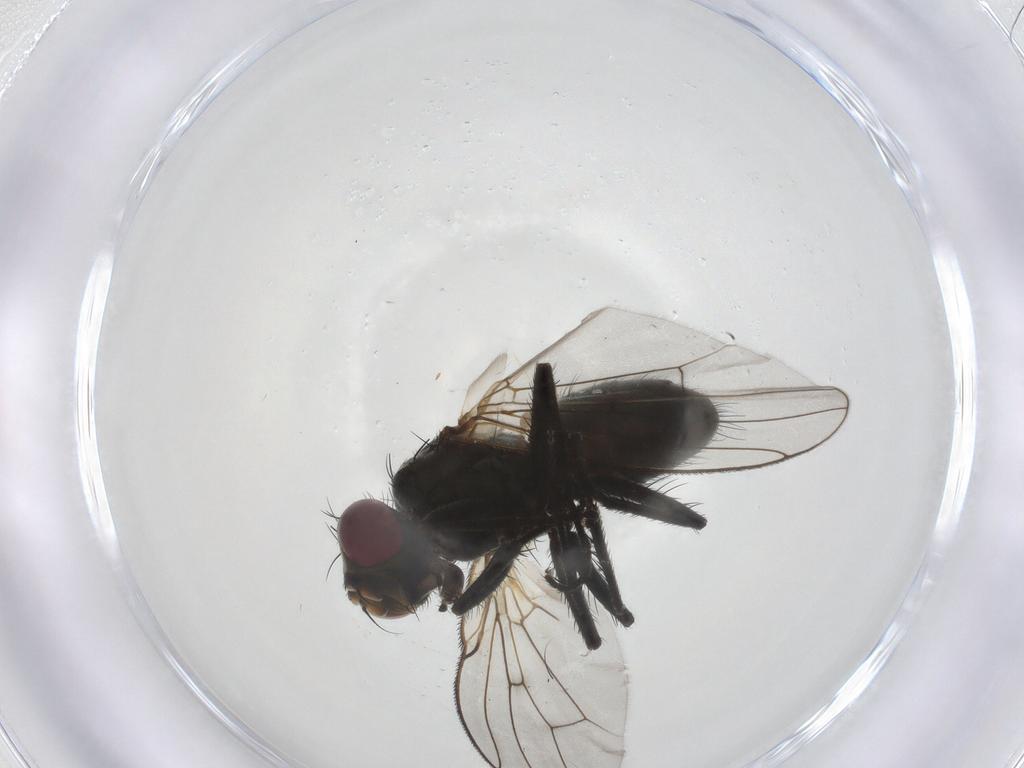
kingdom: Animalia
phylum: Arthropoda
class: Insecta
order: Diptera
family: Muscidae
